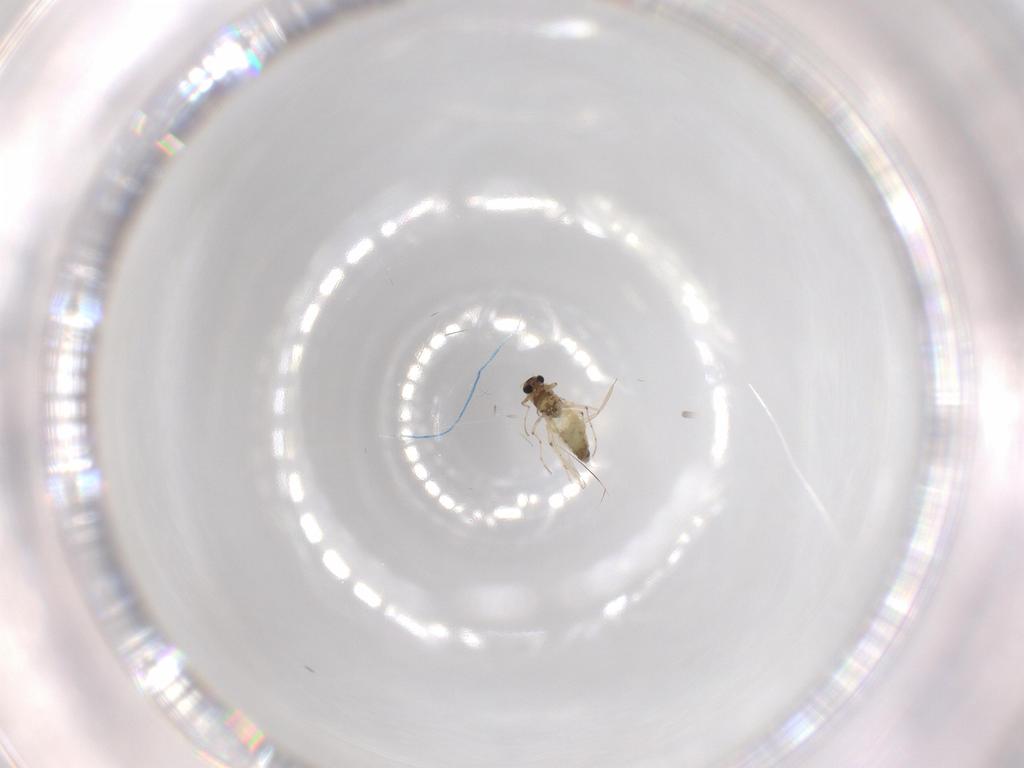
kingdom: Animalia
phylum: Arthropoda
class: Insecta
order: Diptera
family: Chironomidae
